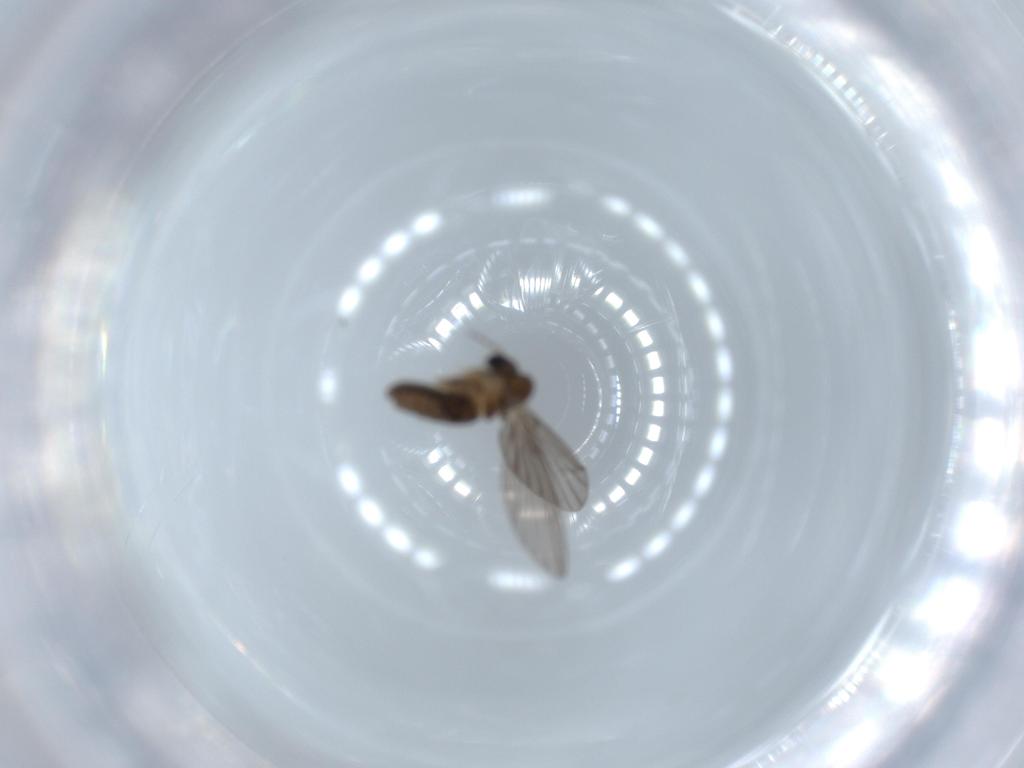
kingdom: Animalia
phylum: Arthropoda
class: Insecta
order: Diptera
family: Psychodidae
